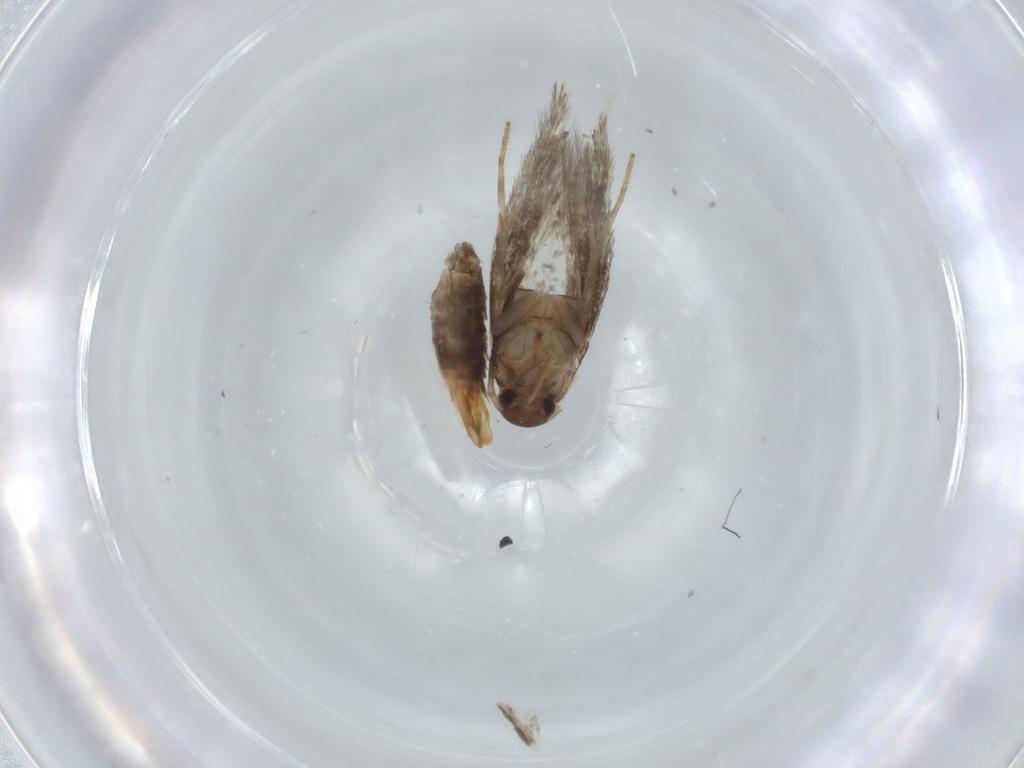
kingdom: Animalia
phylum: Arthropoda
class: Insecta
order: Lepidoptera
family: Elachistidae
